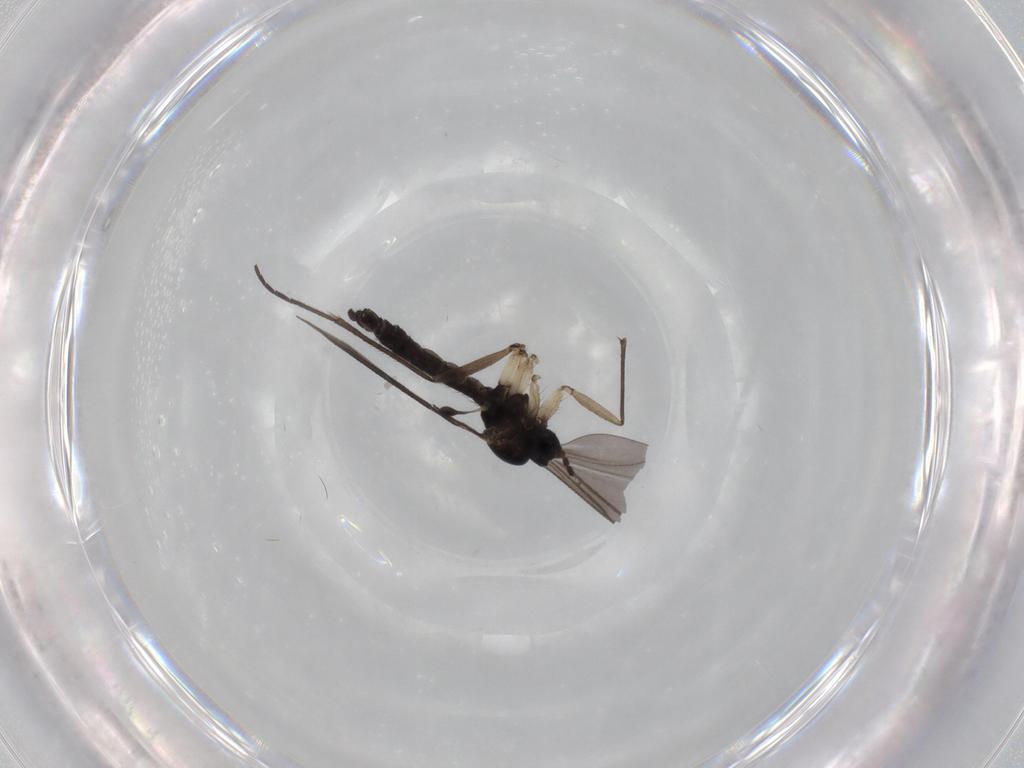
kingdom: Animalia
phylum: Arthropoda
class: Insecta
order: Diptera
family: Sciaridae
